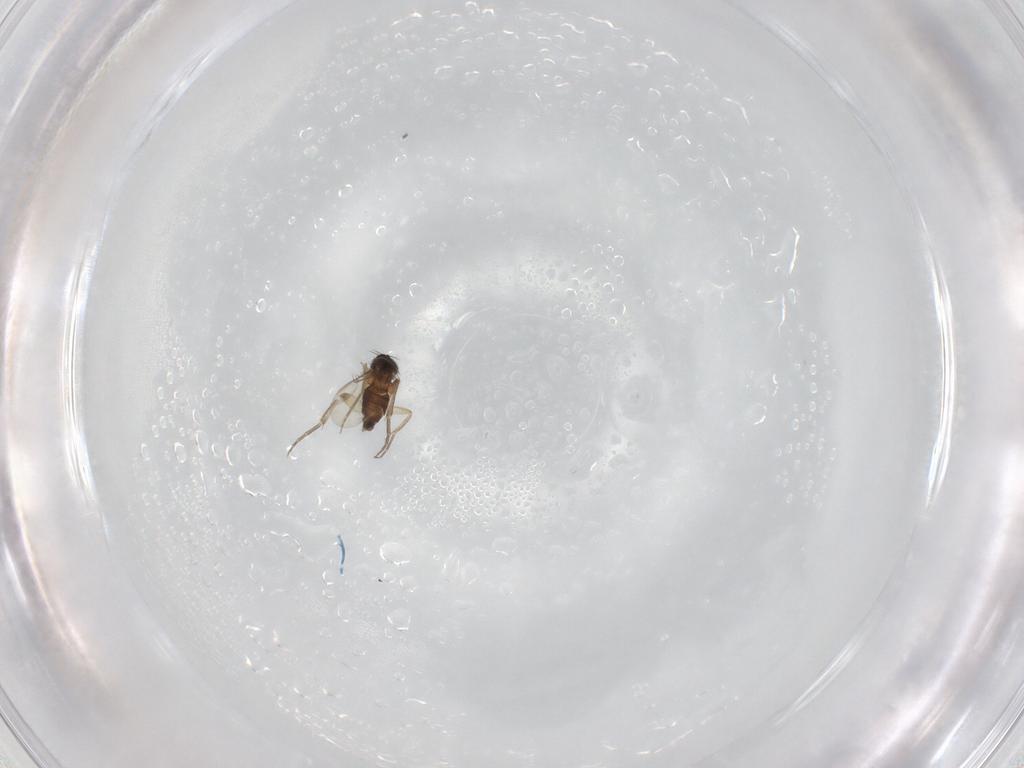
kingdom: Animalia
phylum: Arthropoda
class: Insecta
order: Diptera
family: Phoridae
